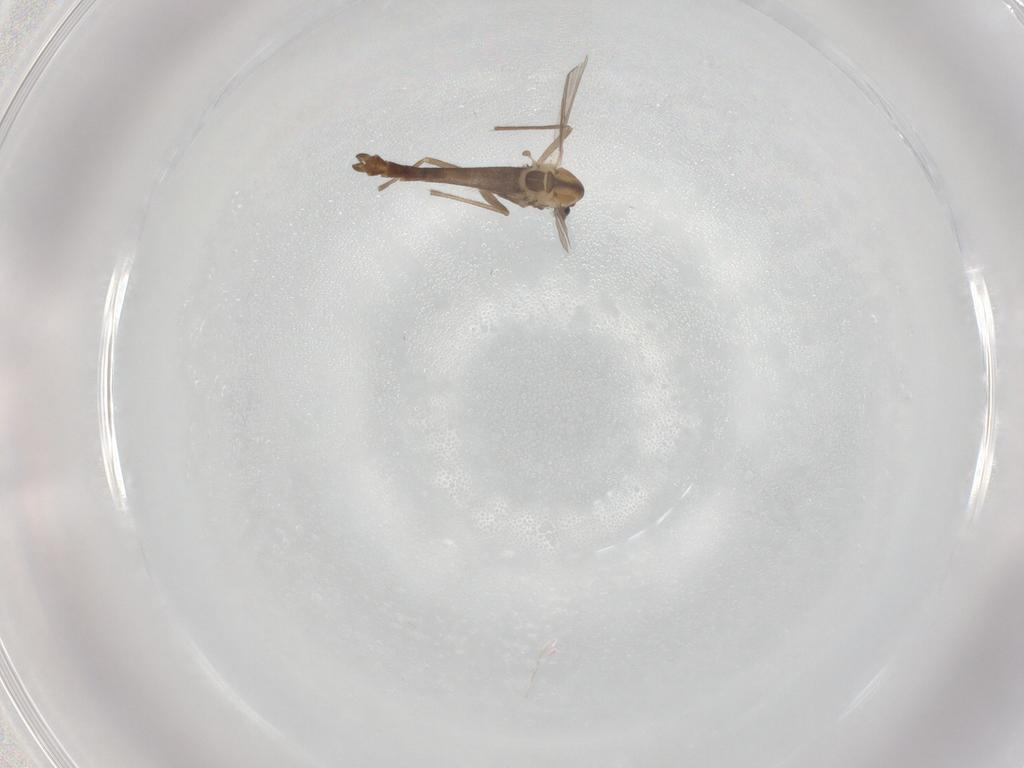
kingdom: Animalia
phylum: Arthropoda
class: Insecta
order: Diptera
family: Chironomidae
